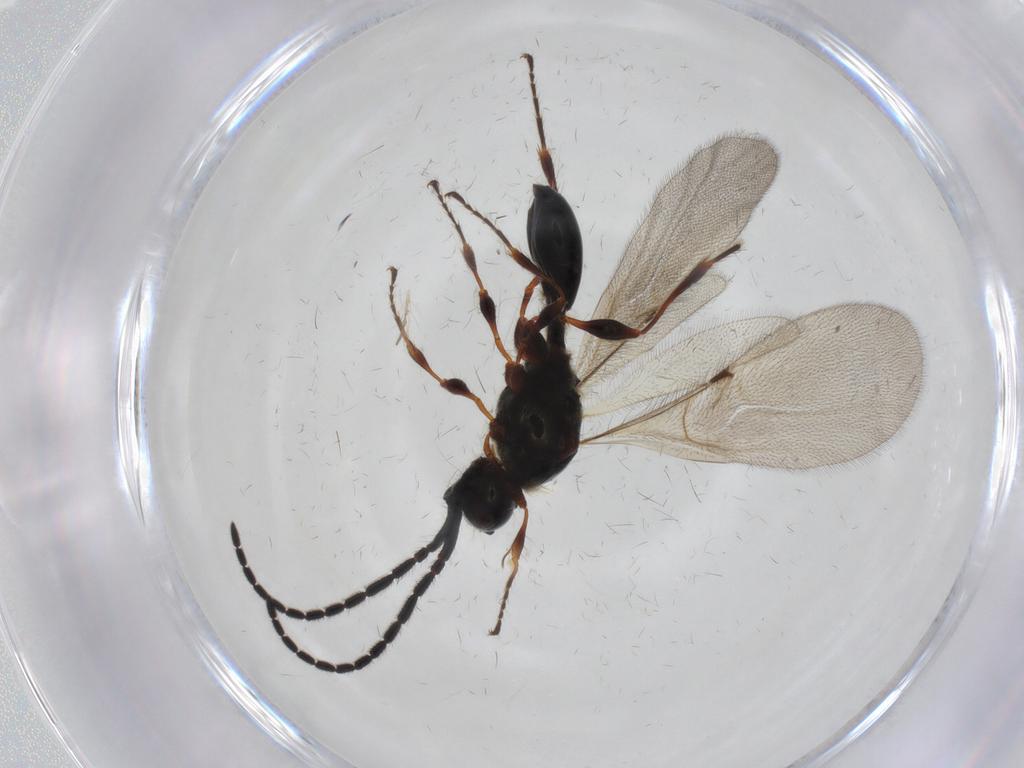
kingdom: Animalia
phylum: Arthropoda
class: Insecta
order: Hymenoptera
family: Diapriidae
